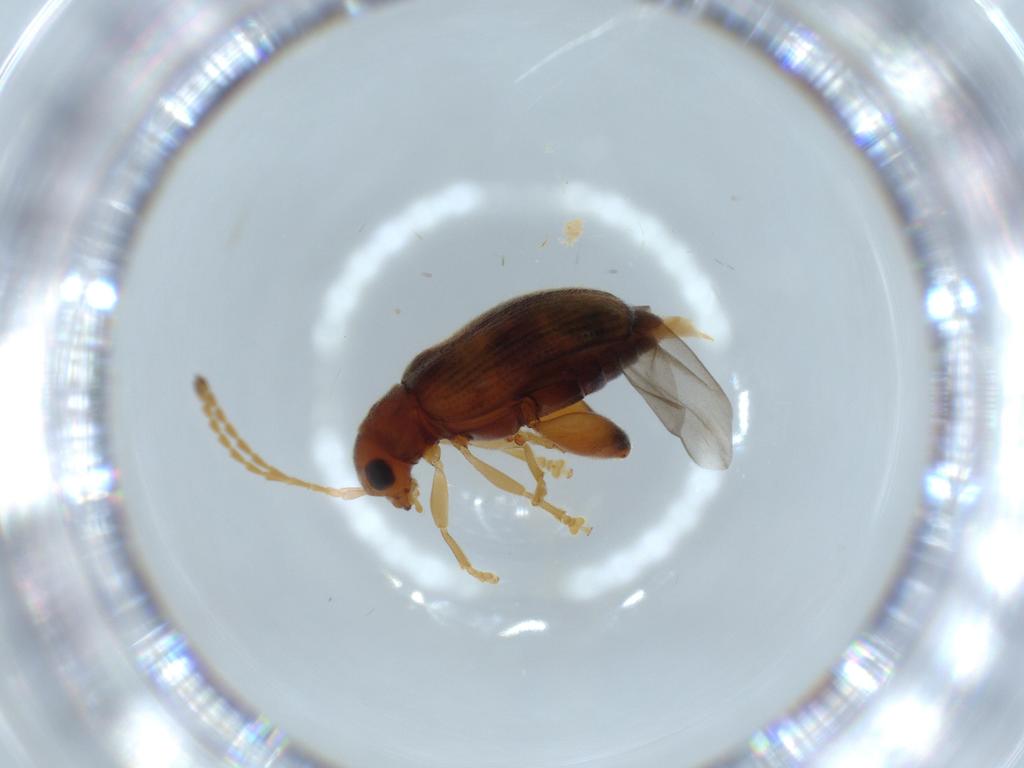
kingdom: Animalia
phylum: Arthropoda
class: Insecta
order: Coleoptera
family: Chrysomelidae
